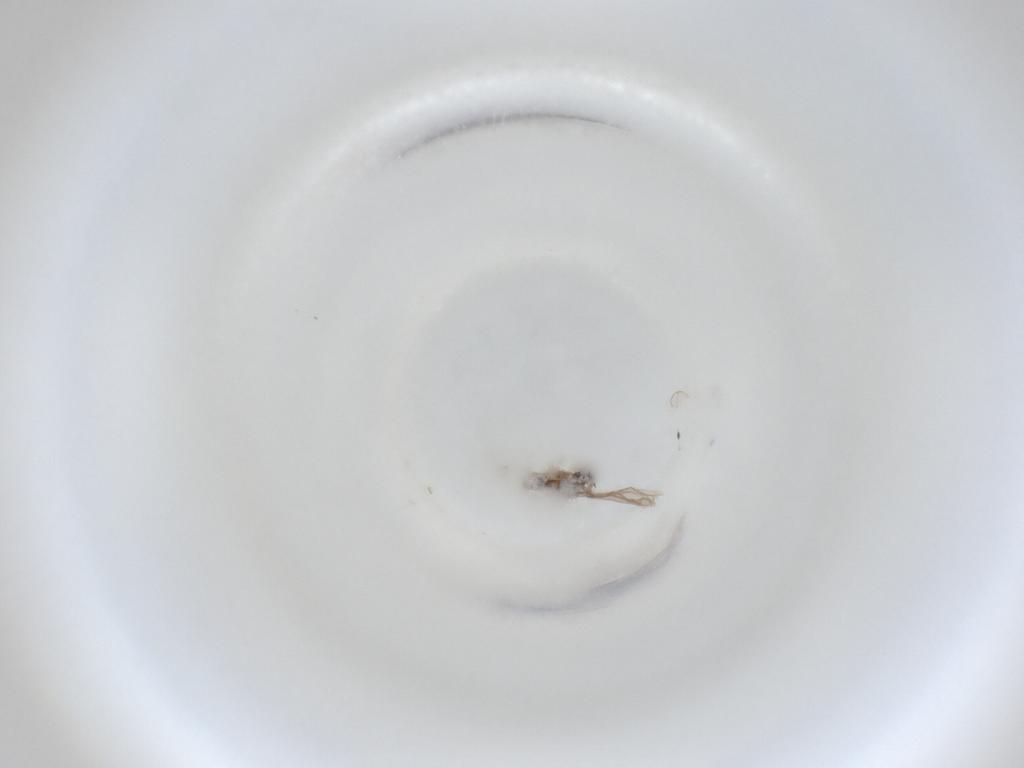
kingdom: Animalia
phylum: Arthropoda
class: Insecta
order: Diptera
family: Cecidomyiidae
